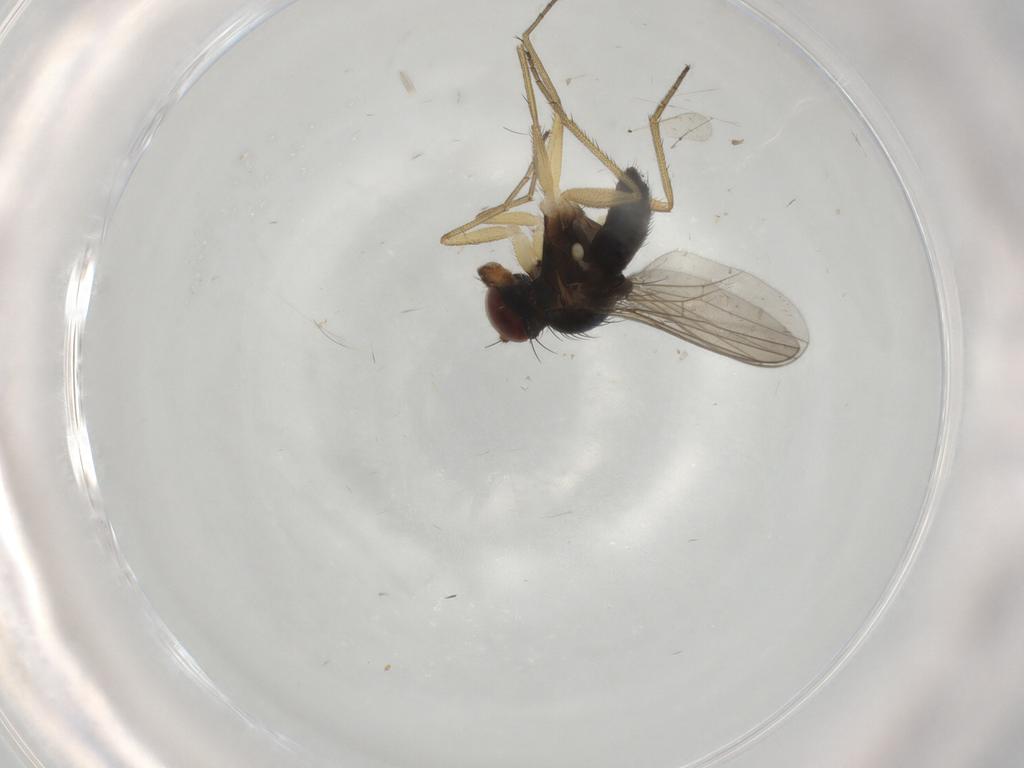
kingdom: Animalia
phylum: Arthropoda
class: Insecta
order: Diptera
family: Dolichopodidae
